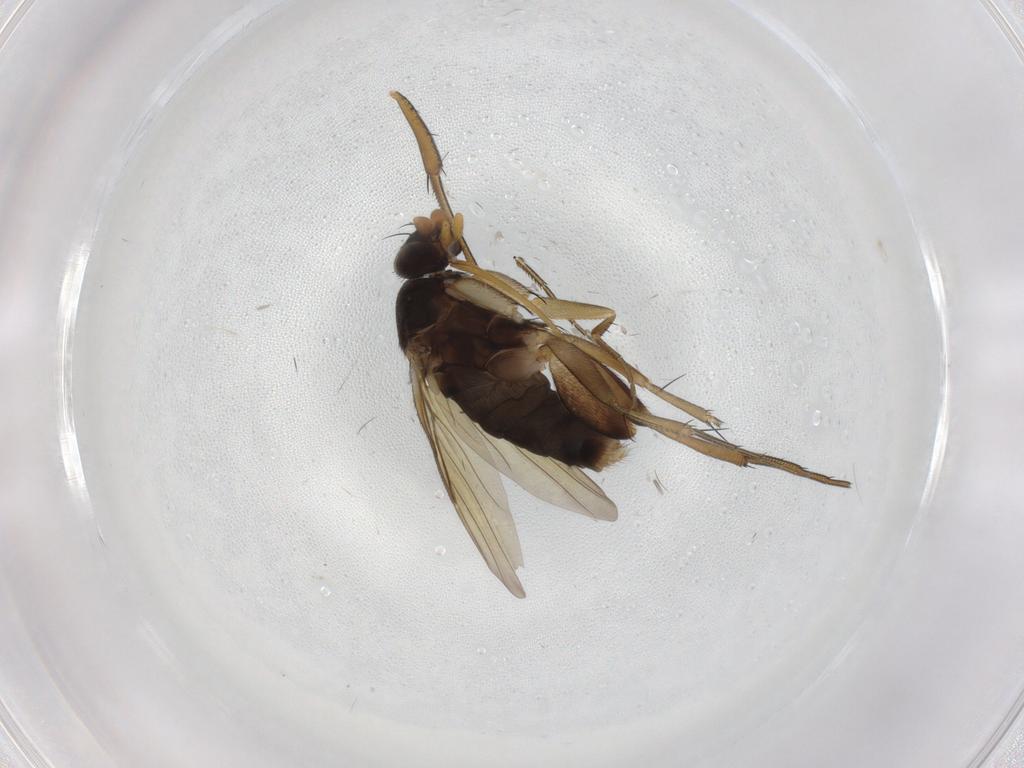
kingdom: Animalia
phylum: Arthropoda
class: Insecta
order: Diptera
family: Phoridae
